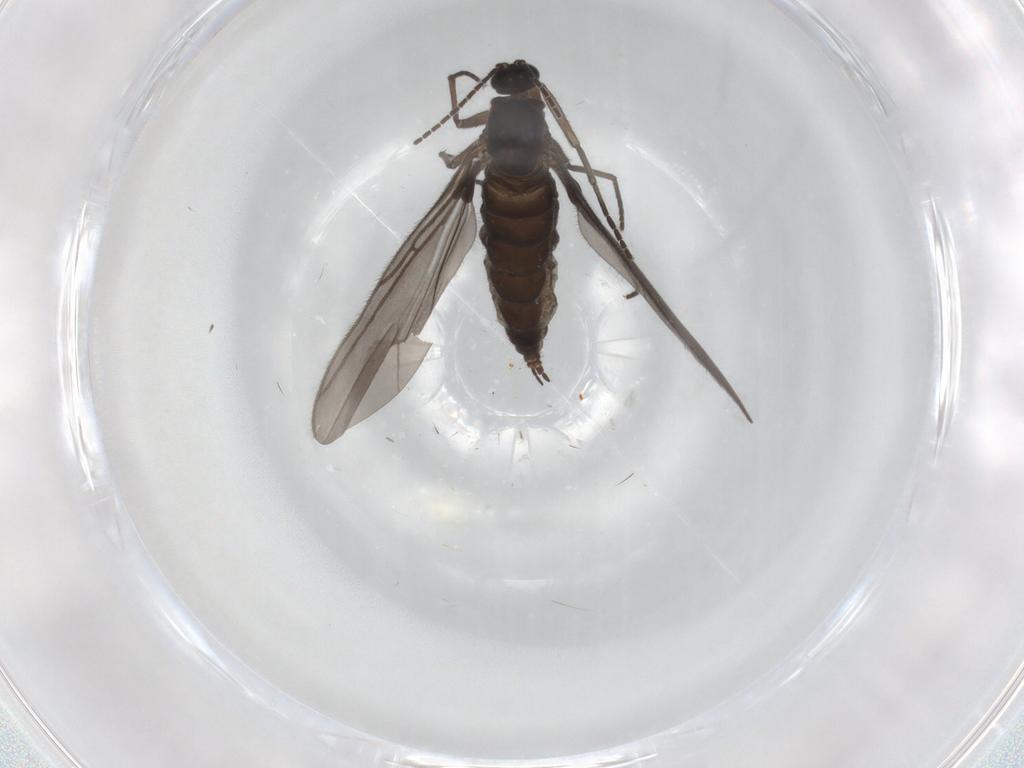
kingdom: Animalia
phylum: Arthropoda
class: Insecta
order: Diptera
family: Sciaridae
